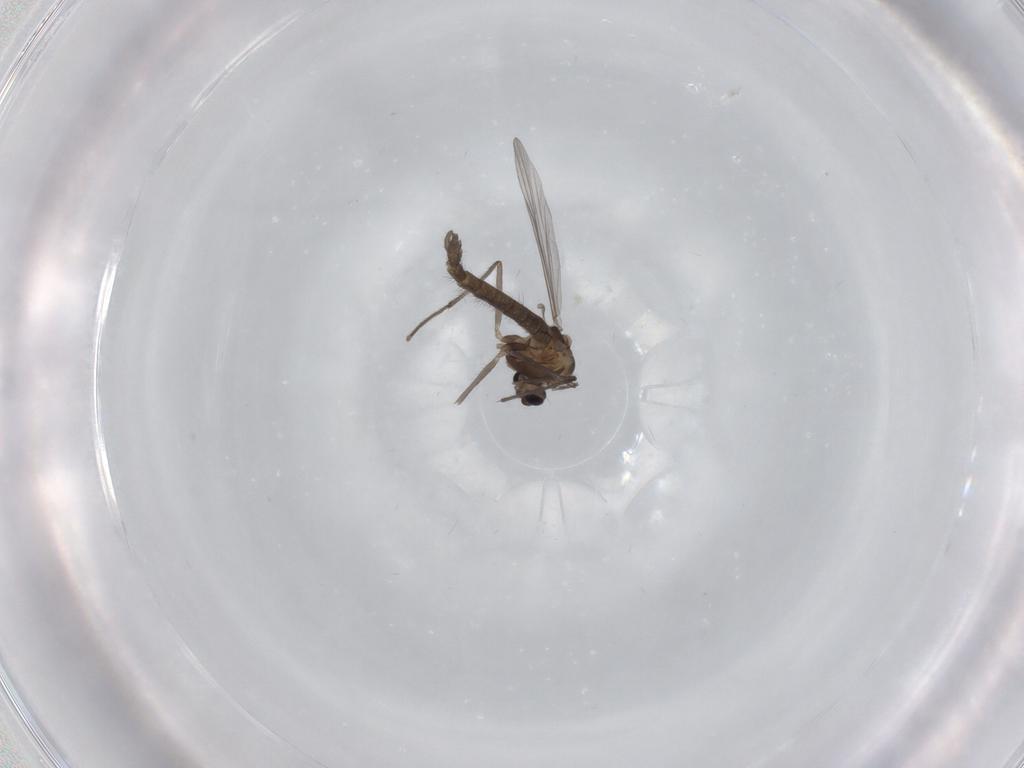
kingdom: Animalia
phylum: Arthropoda
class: Insecta
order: Diptera
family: Chironomidae
